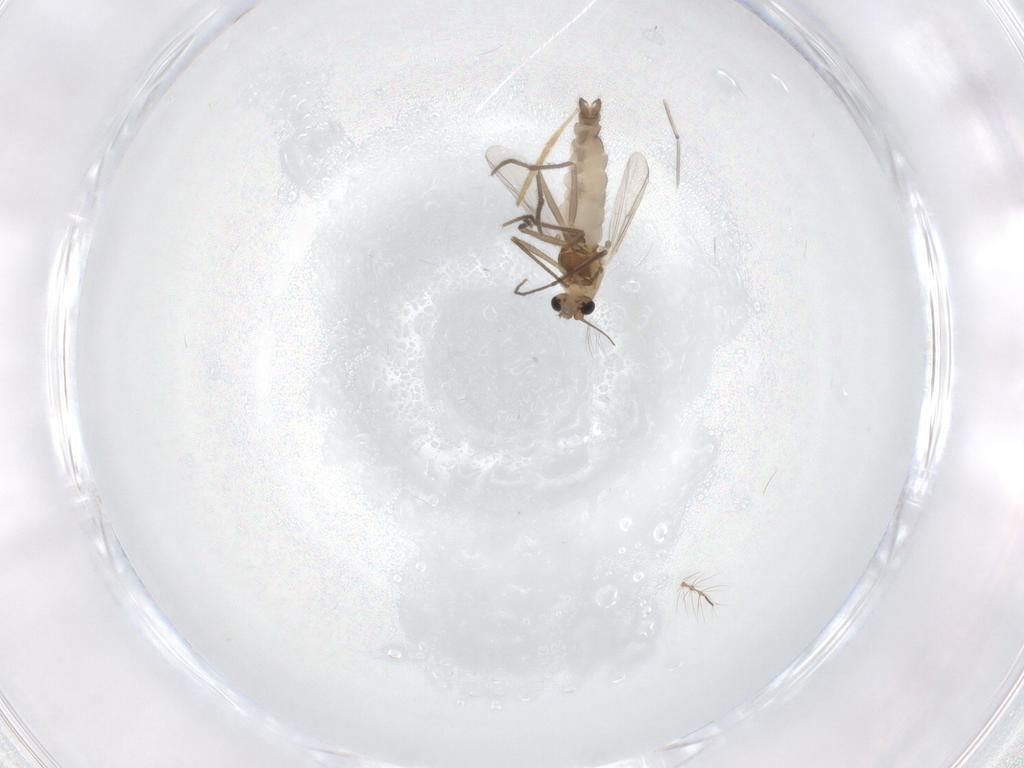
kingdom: Animalia
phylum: Arthropoda
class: Insecta
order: Diptera
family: Chironomidae
